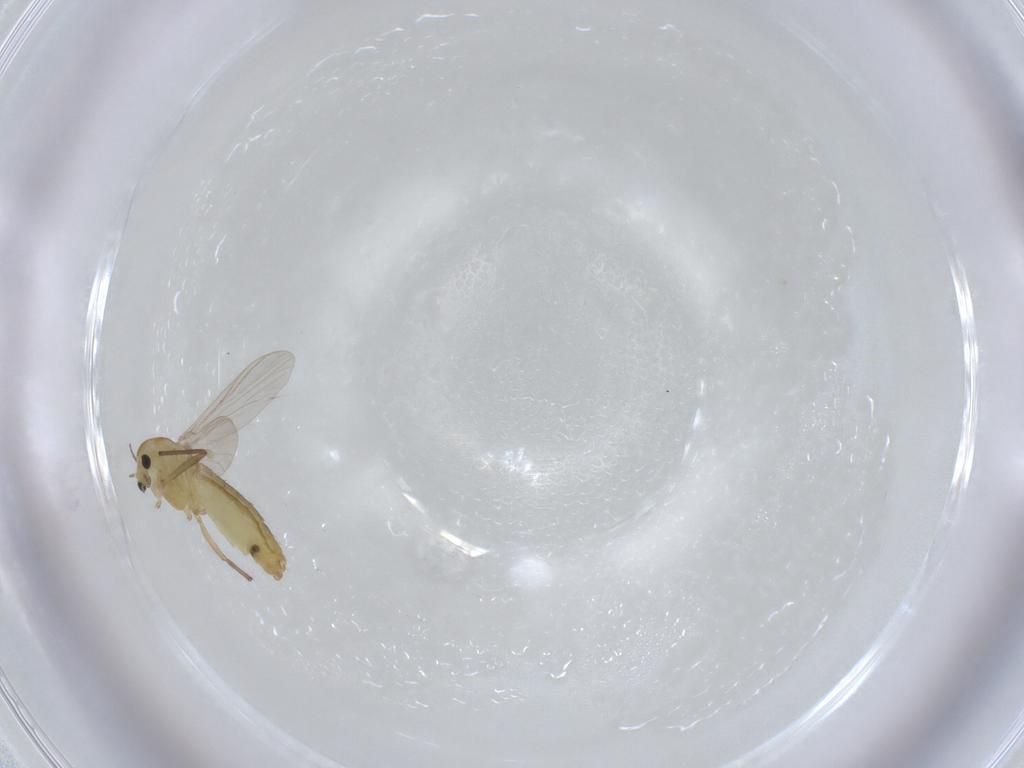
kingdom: Animalia
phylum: Arthropoda
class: Insecta
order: Diptera
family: Chironomidae
